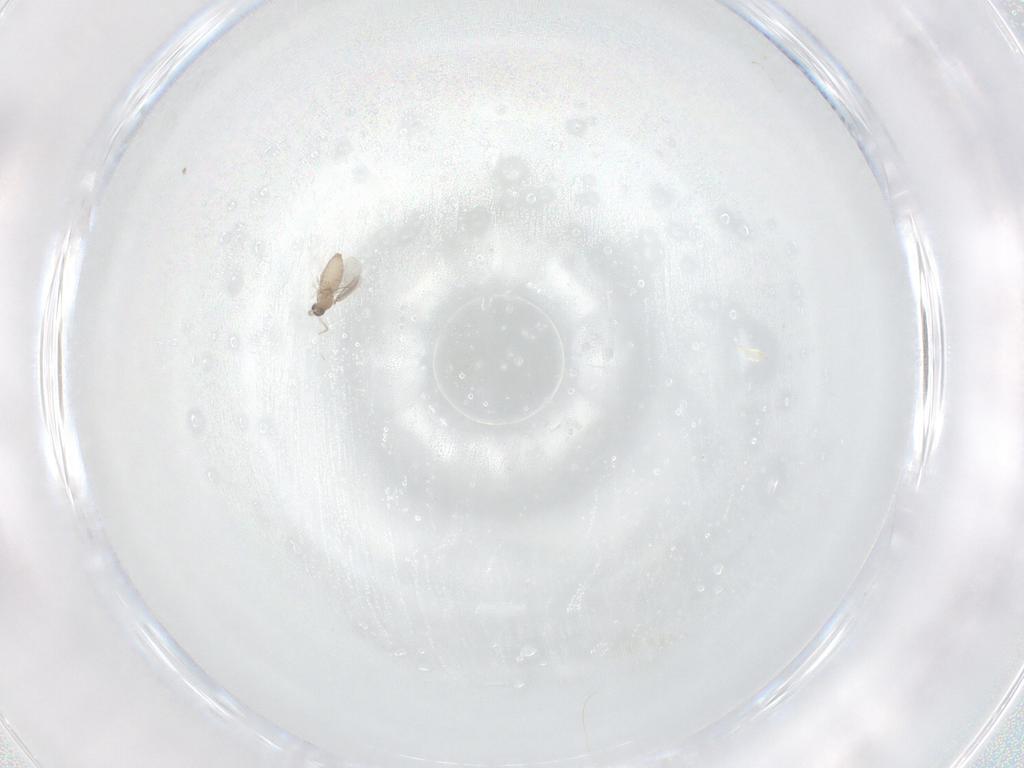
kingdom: Animalia
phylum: Arthropoda
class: Insecta
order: Diptera
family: Cecidomyiidae
